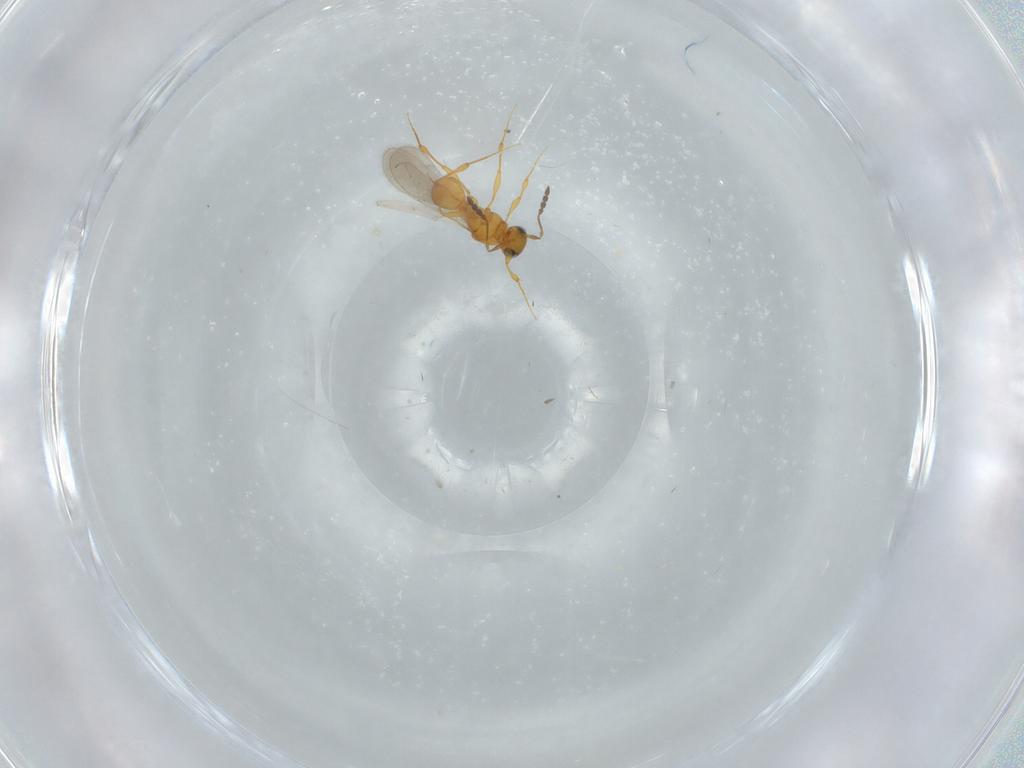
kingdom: Animalia
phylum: Arthropoda
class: Insecta
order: Hymenoptera
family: Platygastridae
